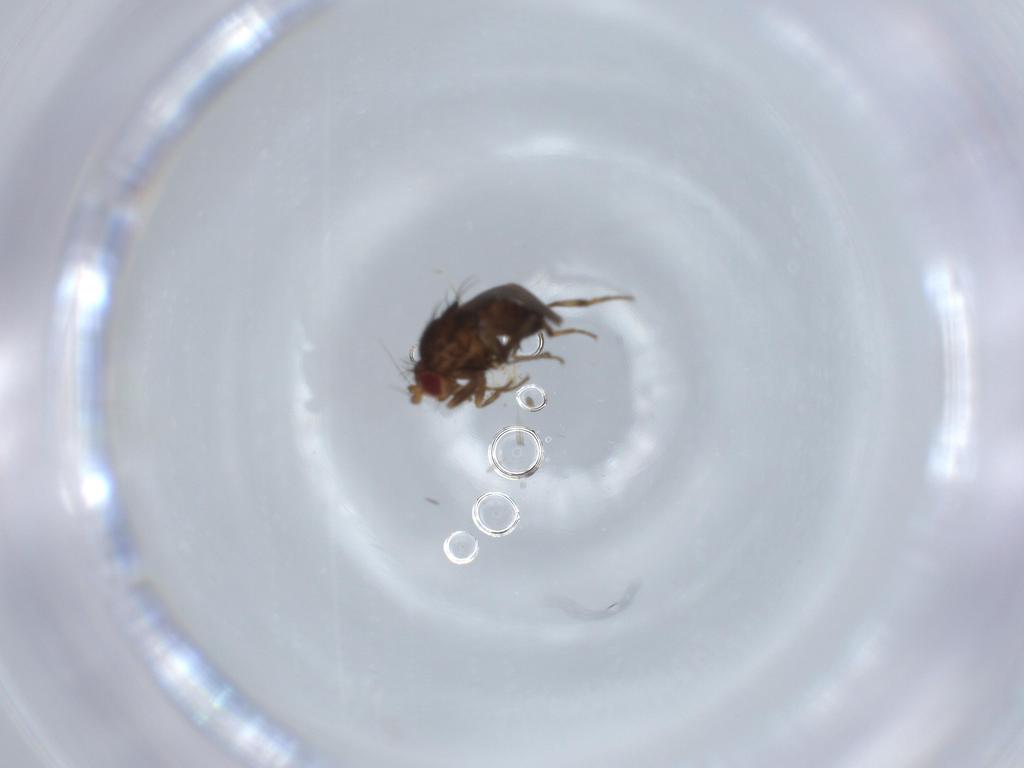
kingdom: Animalia
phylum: Arthropoda
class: Insecta
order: Diptera
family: Sphaeroceridae
